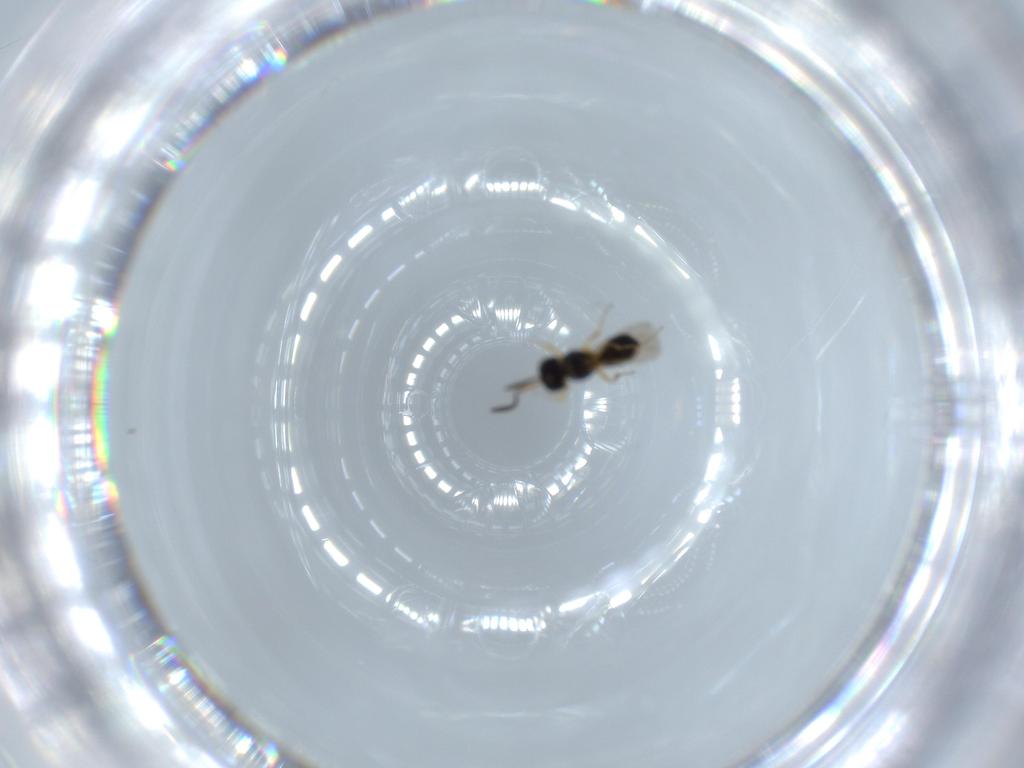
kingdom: Animalia
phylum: Arthropoda
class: Insecta
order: Hymenoptera
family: Scelionidae
